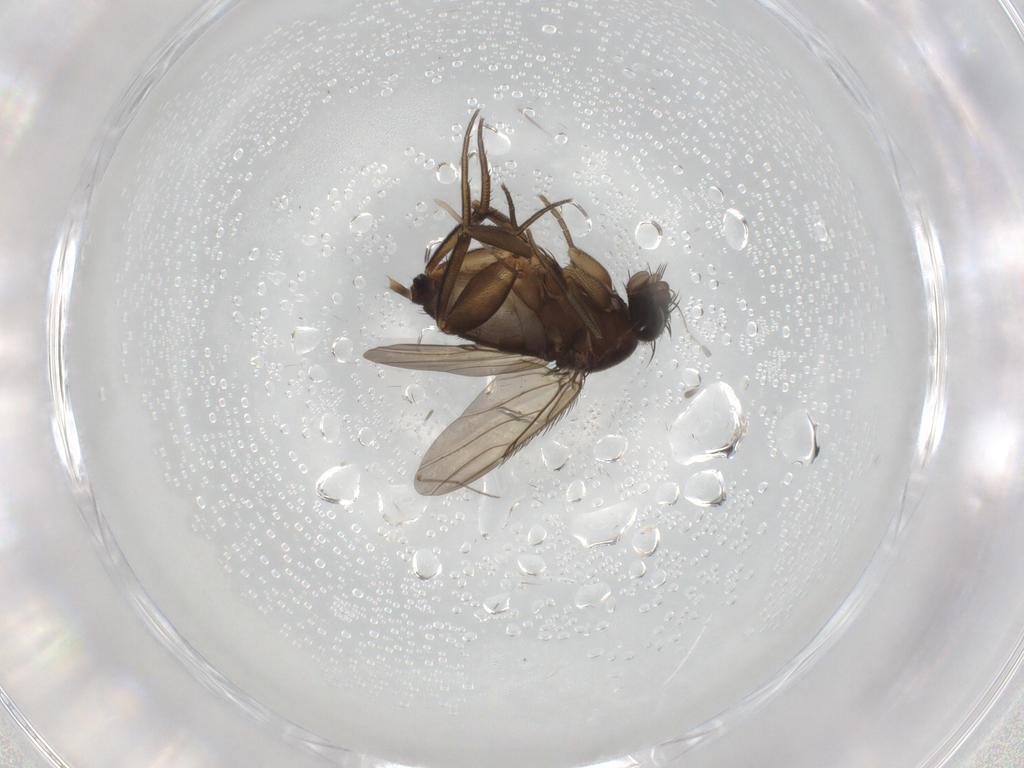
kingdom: Animalia
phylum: Arthropoda
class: Insecta
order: Diptera
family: Phoridae
